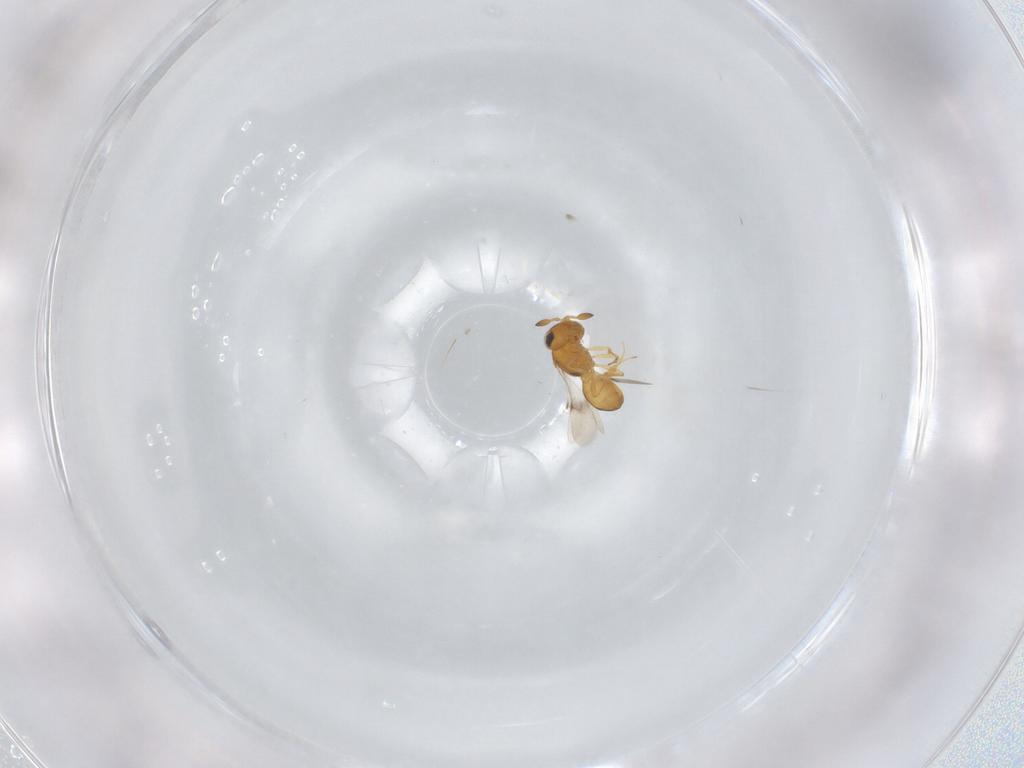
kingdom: Animalia
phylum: Arthropoda
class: Insecta
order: Hymenoptera
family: Scelionidae
